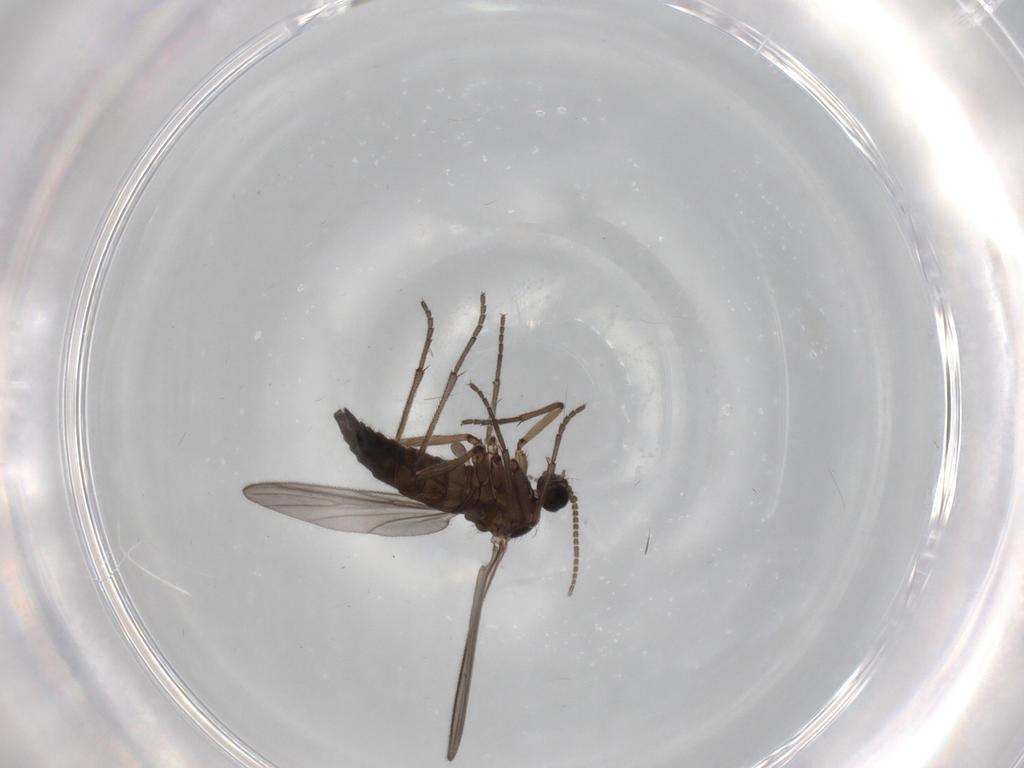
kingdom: Animalia
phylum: Arthropoda
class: Insecta
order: Diptera
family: Sciaridae
